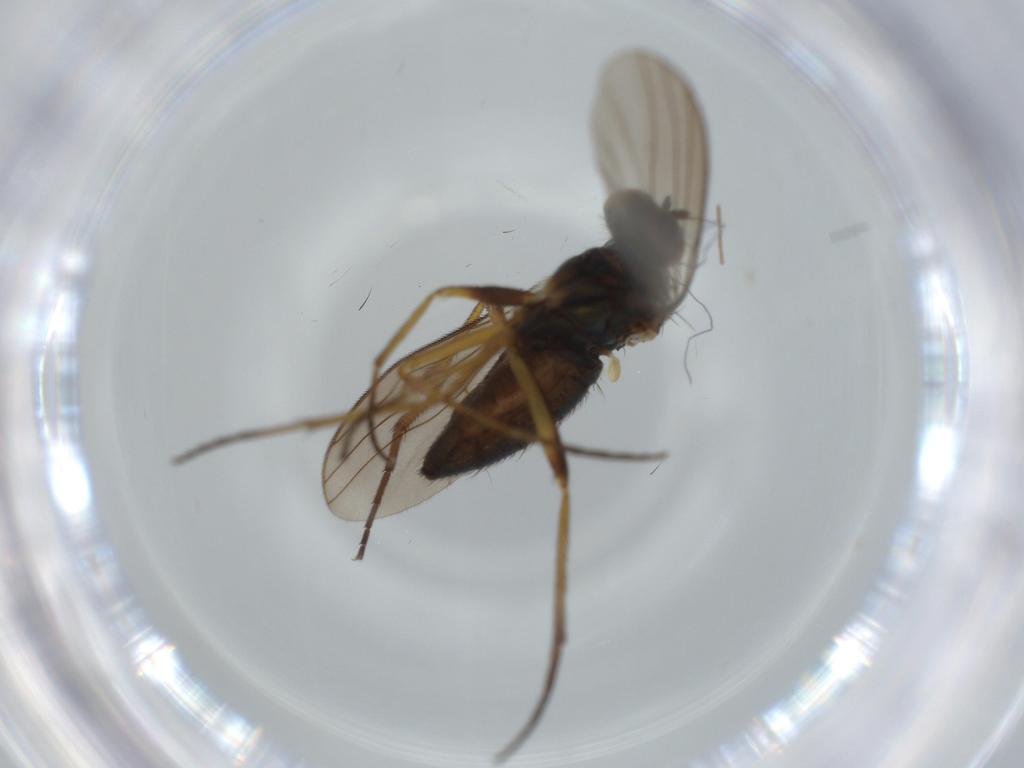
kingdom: Animalia
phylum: Arthropoda
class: Insecta
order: Diptera
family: Dolichopodidae
